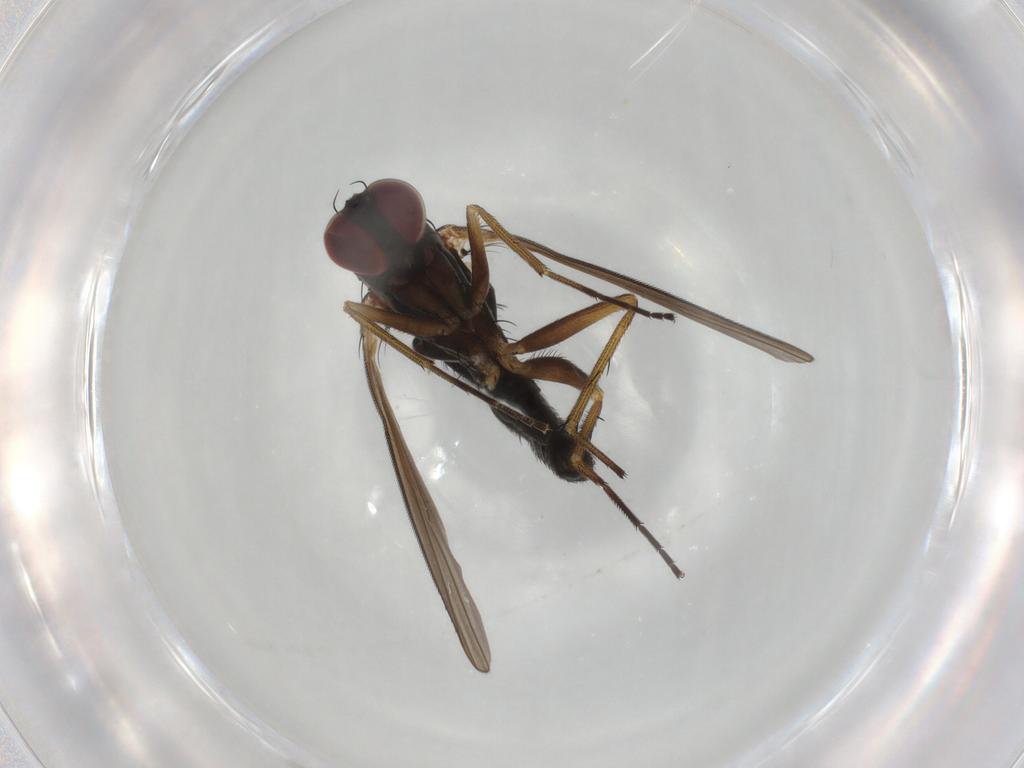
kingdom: Animalia
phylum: Arthropoda
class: Insecta
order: Diptera
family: Dolichopodidae
